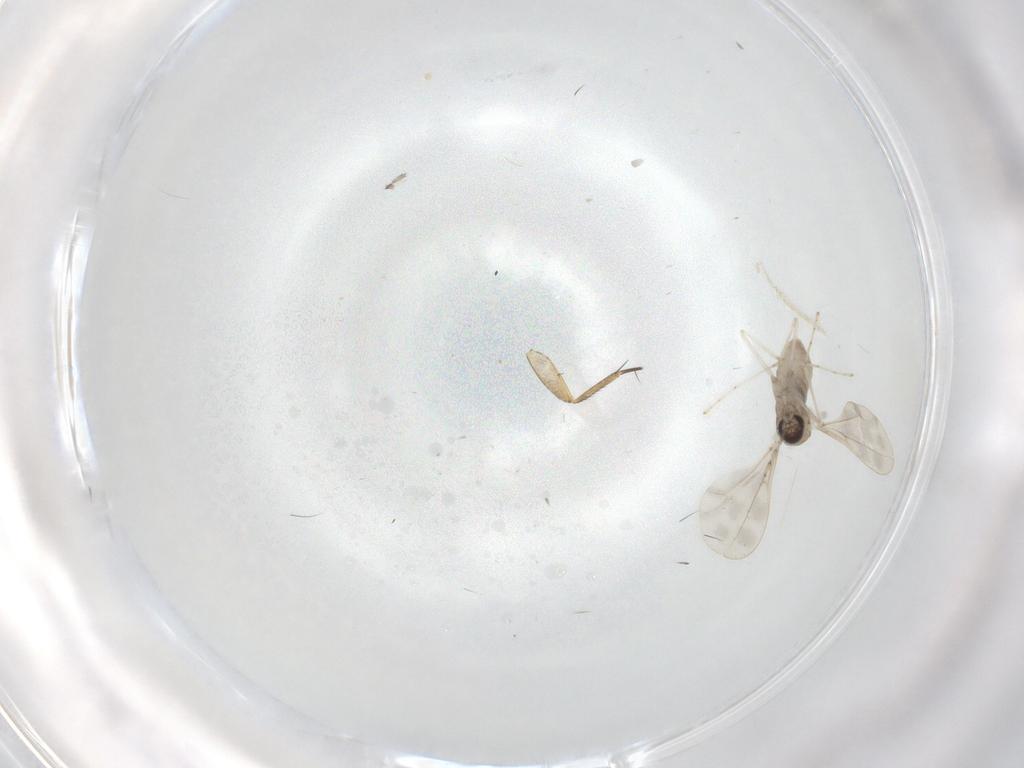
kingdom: Animalia
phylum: Arthropoda
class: Insecta
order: Diptera
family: Cecidomyiidae
